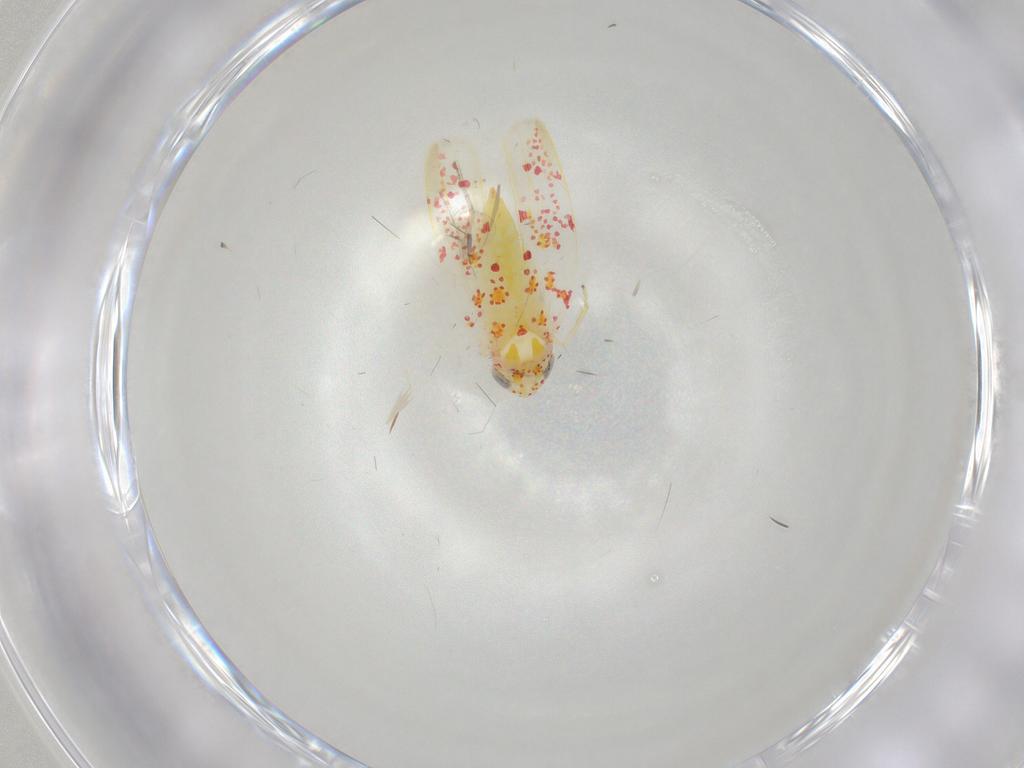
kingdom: Animalia
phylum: Arthropoda
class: Insecta
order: Hemiptera
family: Cicadellidae
